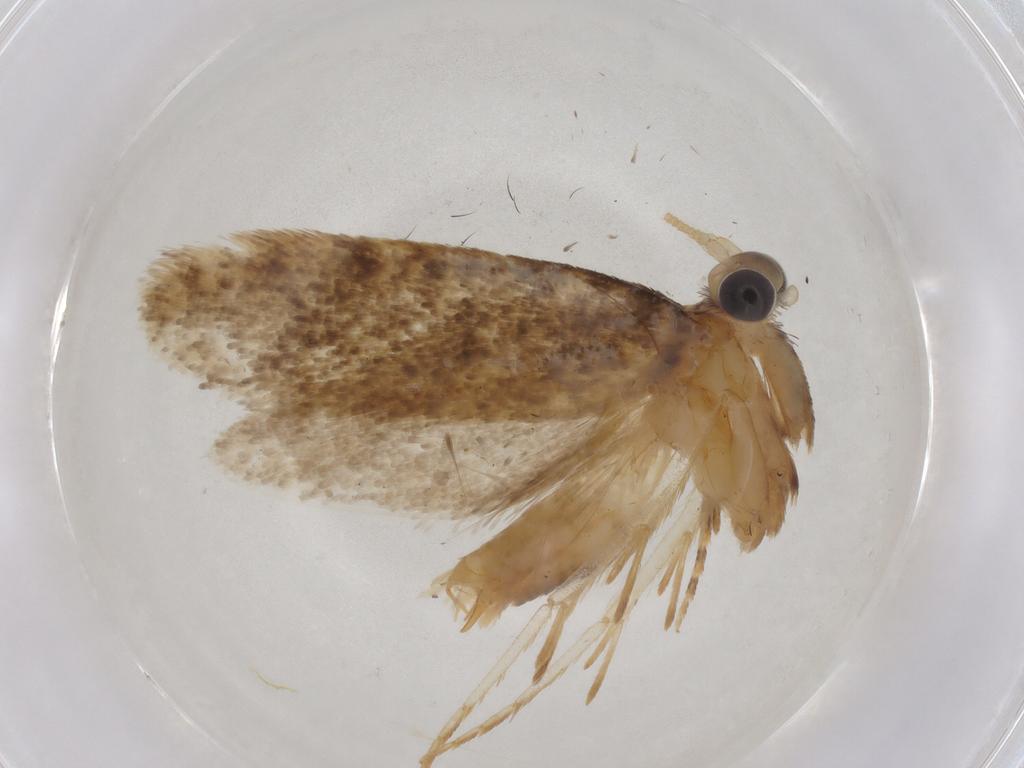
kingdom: Animalia
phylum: Arthropoda
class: Insecta
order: Lepidoptera
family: Tineidae
